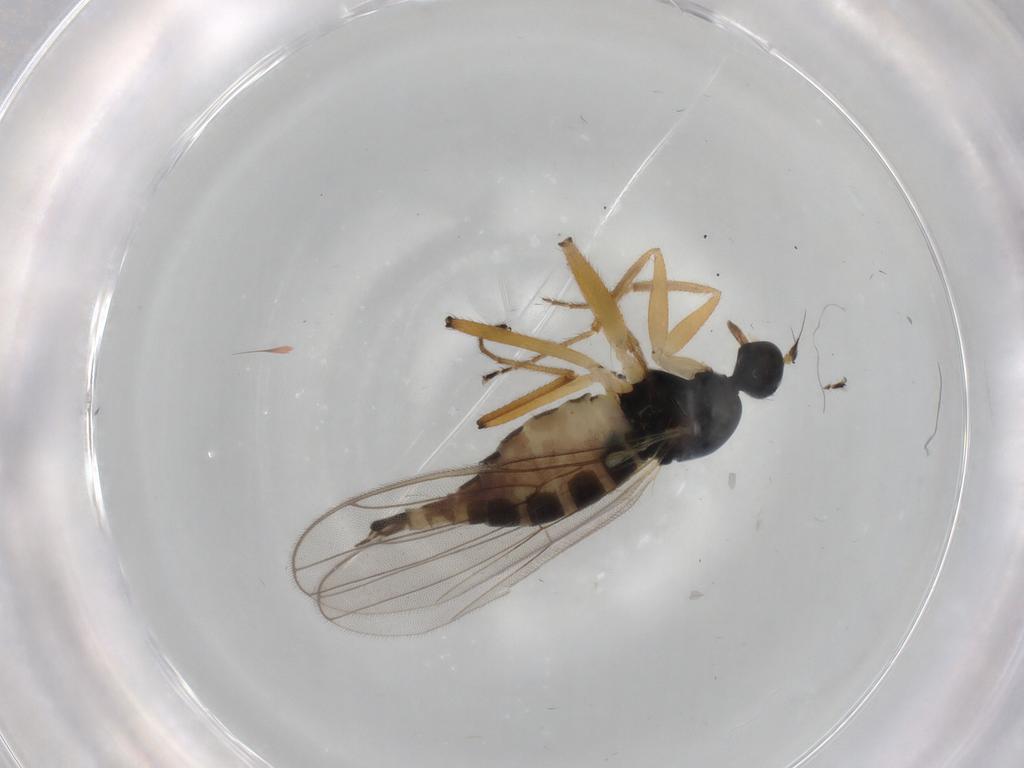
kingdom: Animalia
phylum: Arthropoda
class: Insecta
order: Diptera
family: Hybotidae
